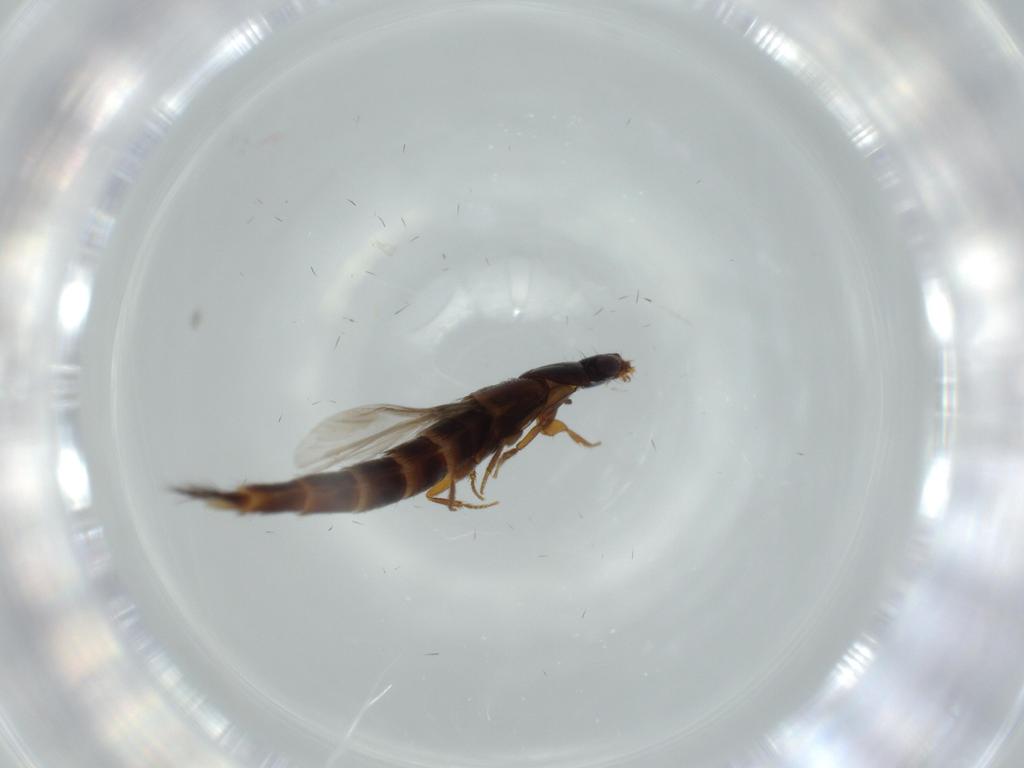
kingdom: Animalia
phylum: Arthropoda
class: Insecta
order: Coleoptera
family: Staphylinidae
